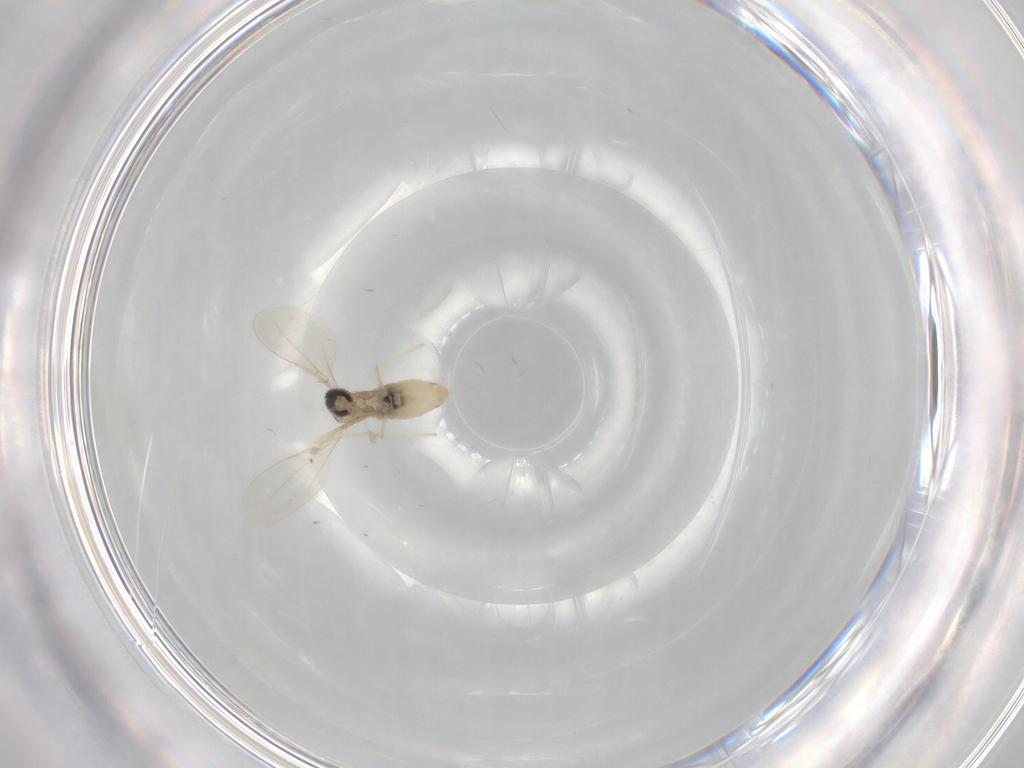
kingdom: Animalia
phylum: Arthropoda
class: Insecta
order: Diptera
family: Cecidomyiidae
